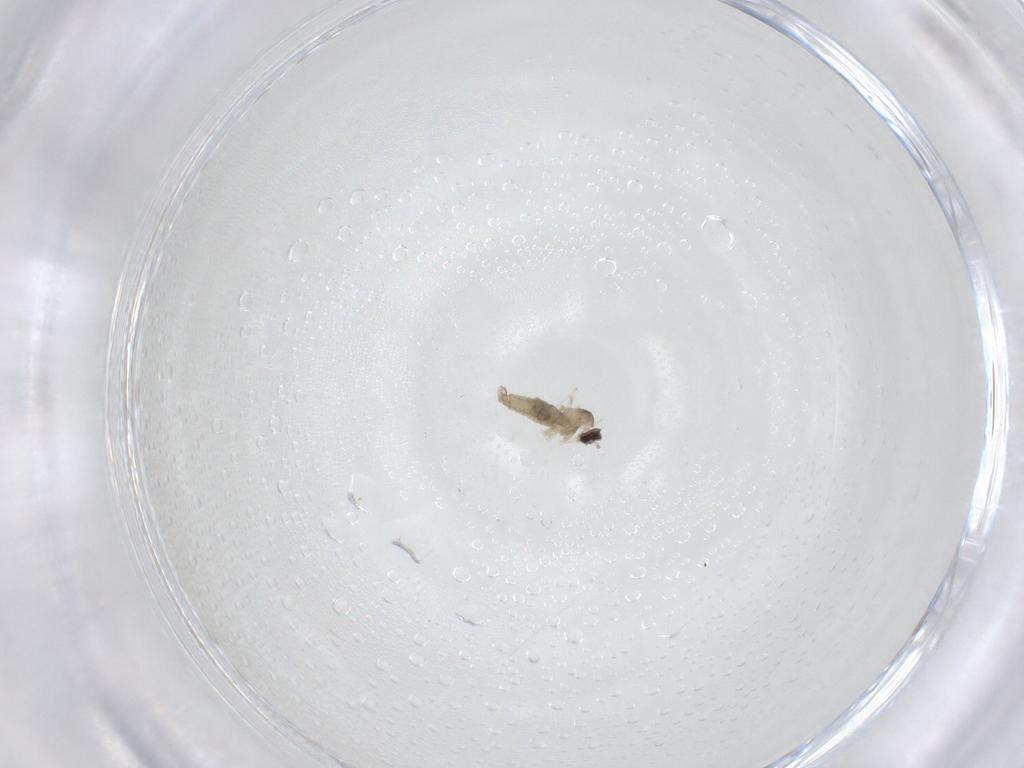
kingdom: Animalia
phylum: Arthropoda
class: Insecta
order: Diptera
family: Cecidomyiidae
